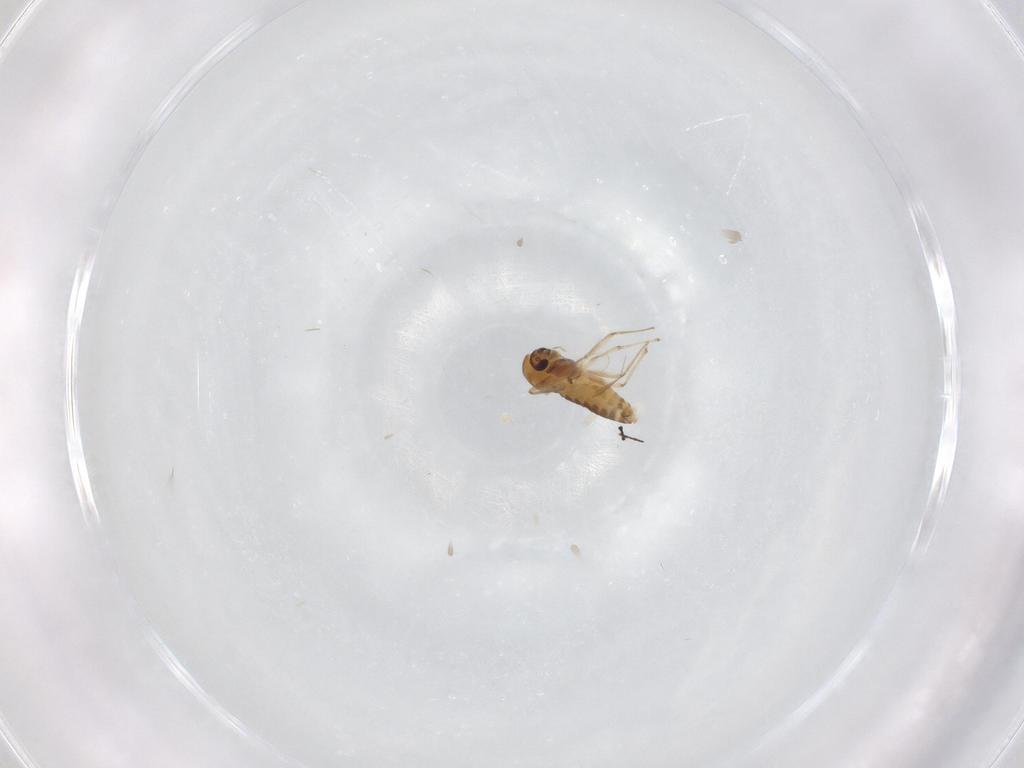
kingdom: Animalia
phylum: Arthropoda
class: Insecta
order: Diptera
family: Chironomidae
